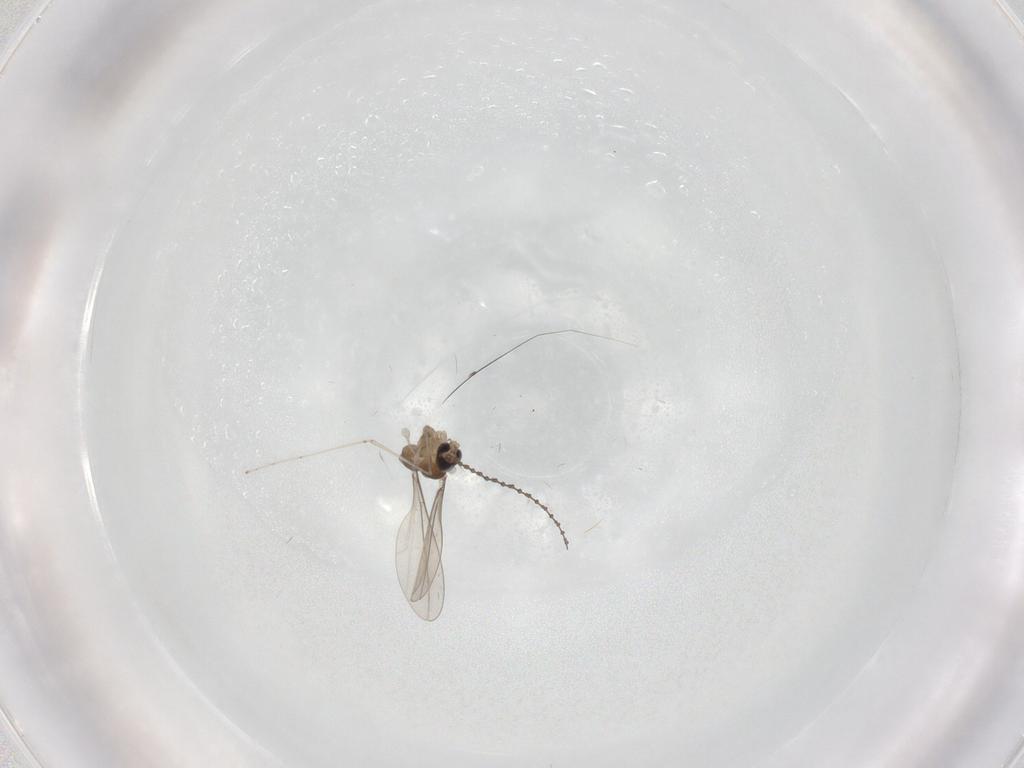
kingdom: Animalia
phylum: Arthropoda
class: Insecta
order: Diptera
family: Cecidomyiidae
